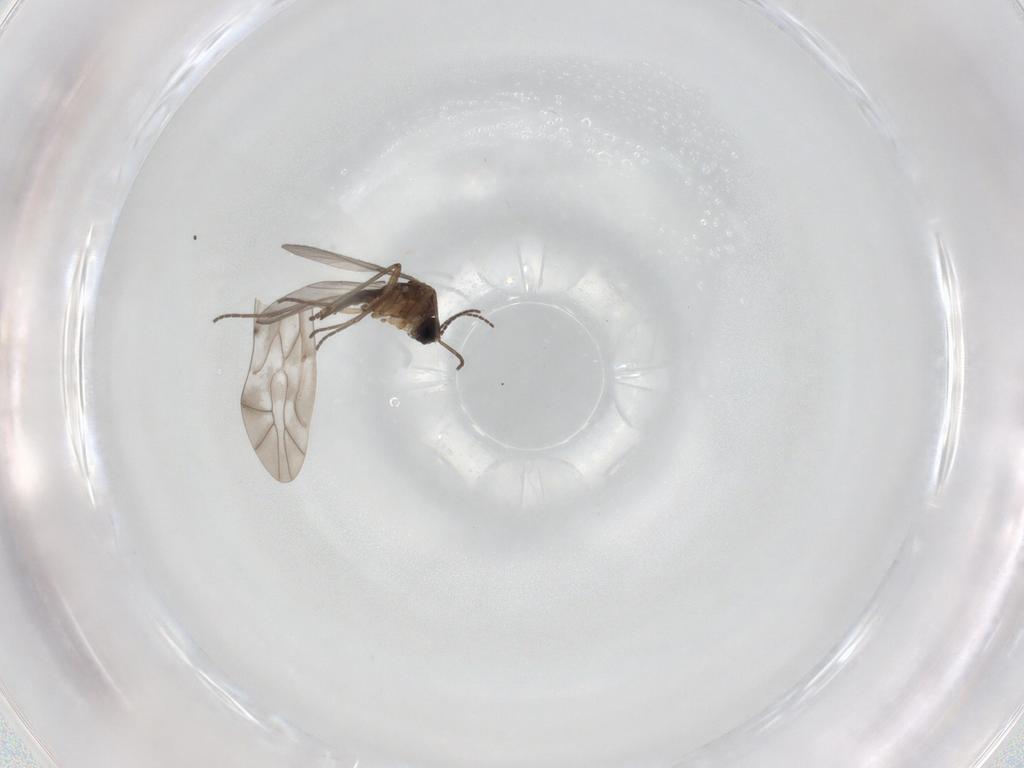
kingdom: Animalia
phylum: Arthropoda
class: Insecta
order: Diptera
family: Sciaridae
